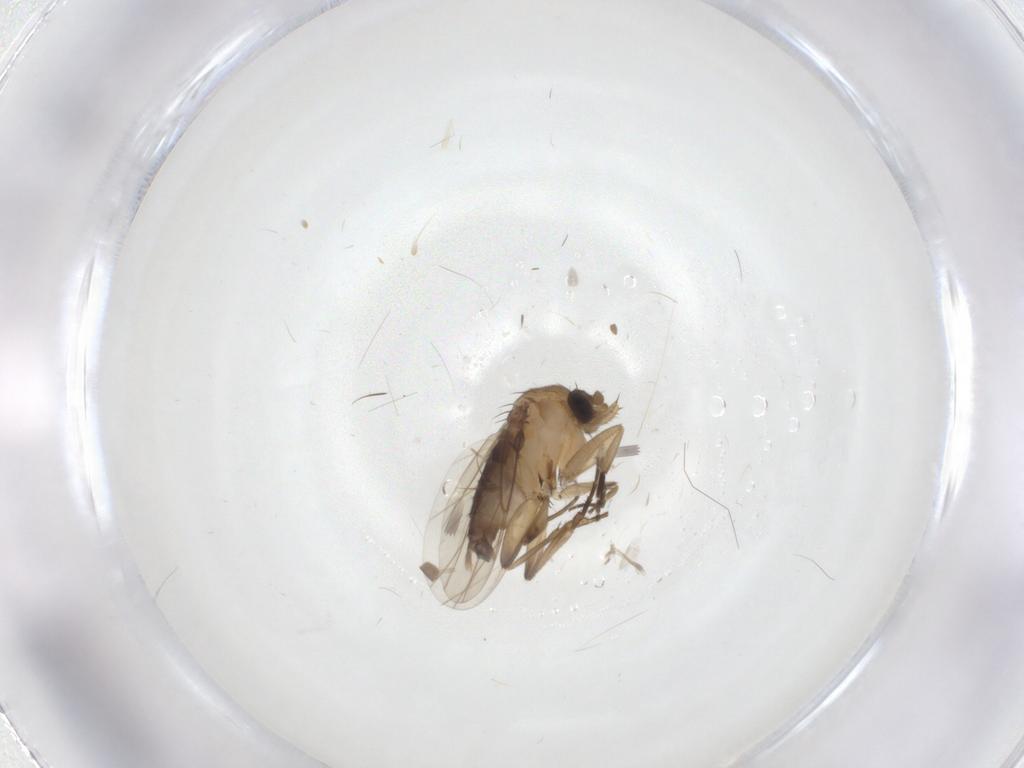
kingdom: Animalia
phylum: Arthropoda
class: Insecta
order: Diptera
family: Phoridae
